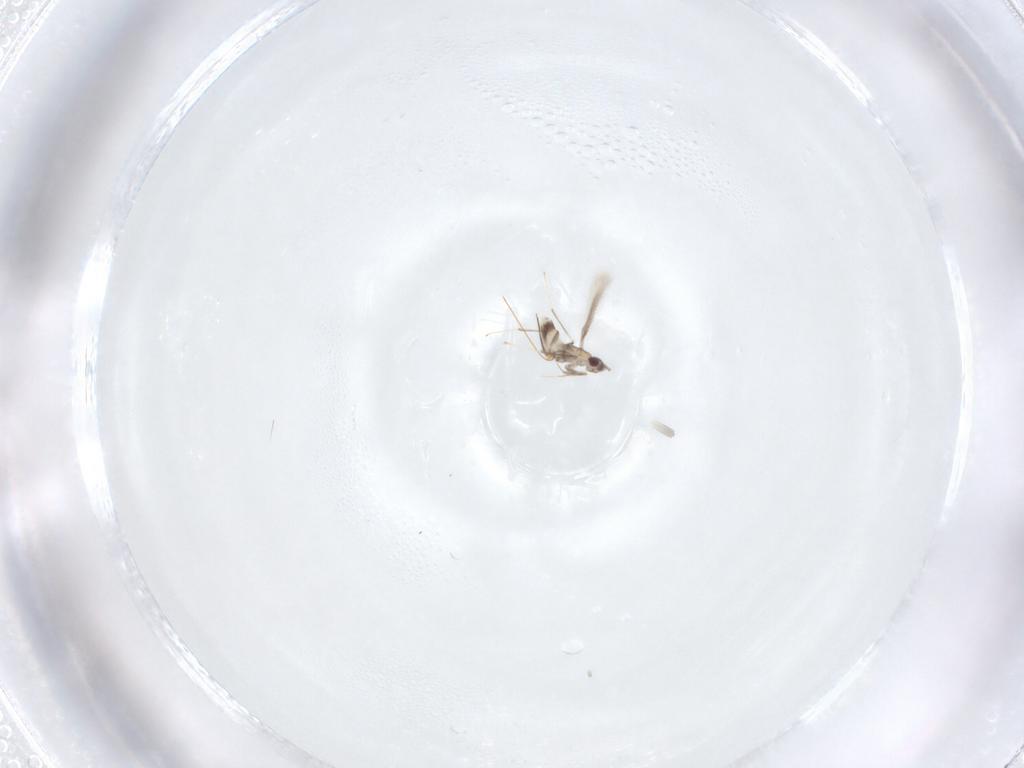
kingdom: Animalia
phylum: Arthropoda
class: Insecta
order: Hymenoptera
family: Mymaridae
